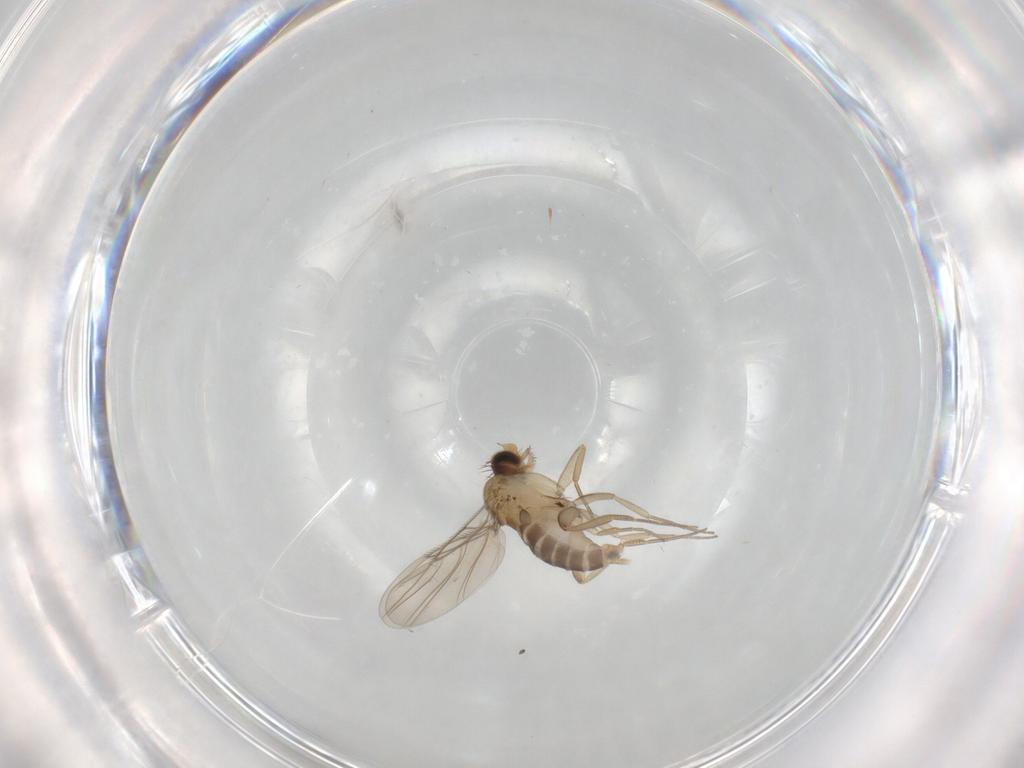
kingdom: Animalia
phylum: Arthropoda
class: Insecta
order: Diptera
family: Phoridae
